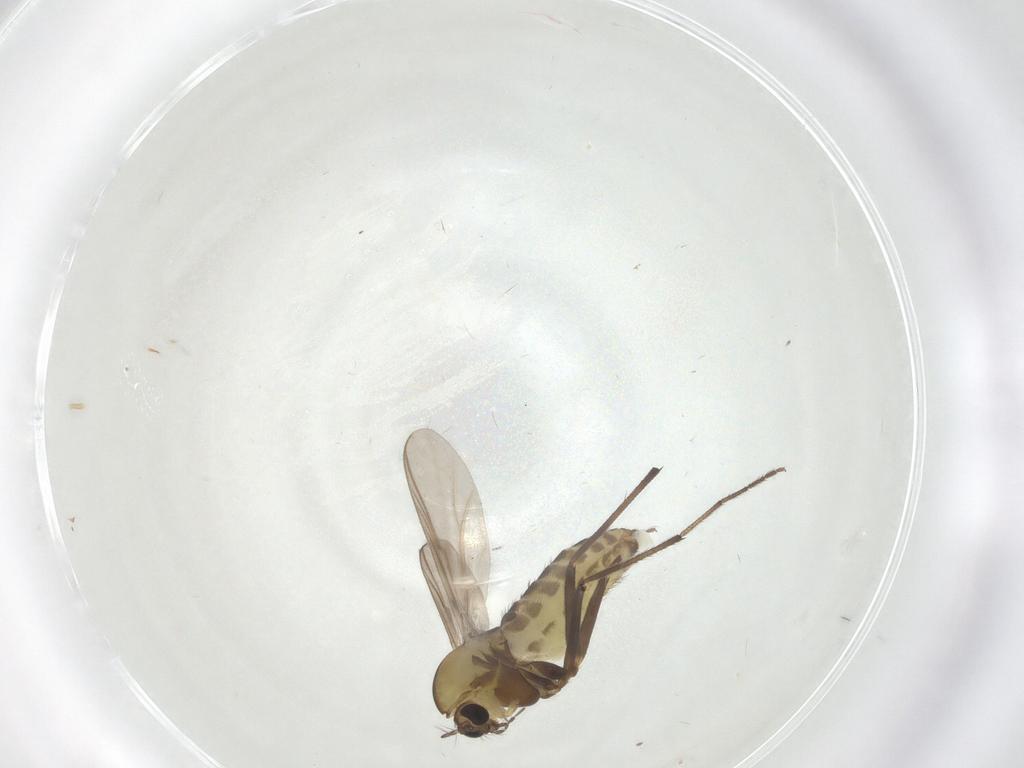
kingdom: Animalia
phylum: Arthropoda
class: Insecta
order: Diptera
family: Chironomidae
